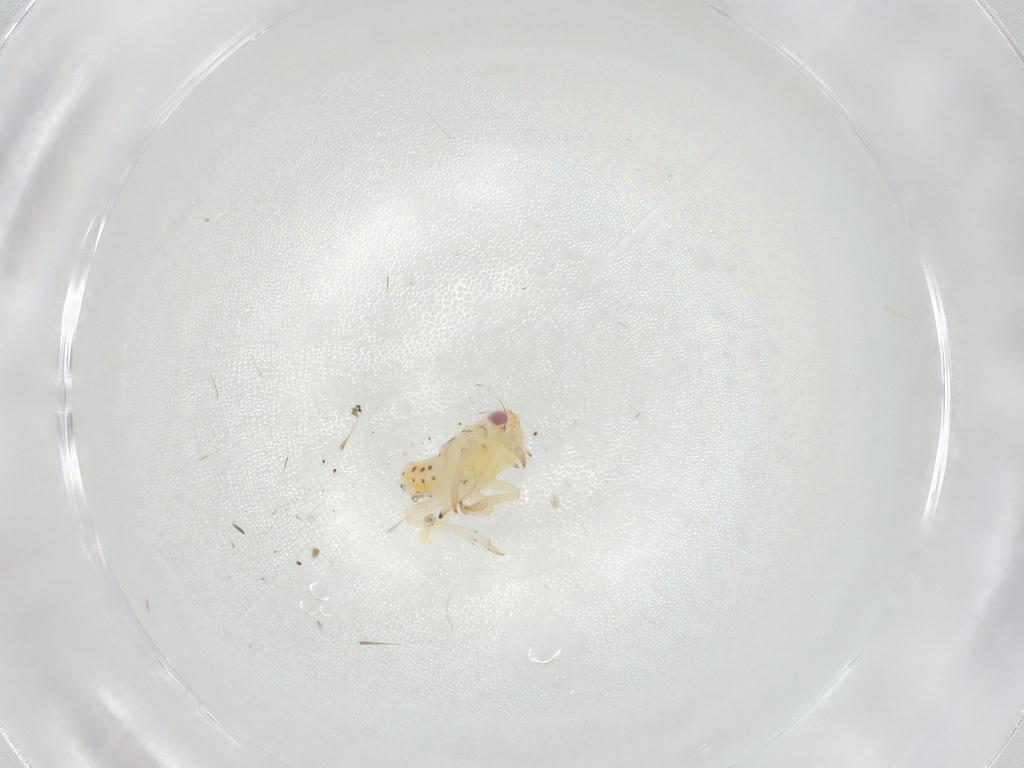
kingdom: Animalia
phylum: Arthropoda
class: Insecta
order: Hemiptera
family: Tropiduchidae
